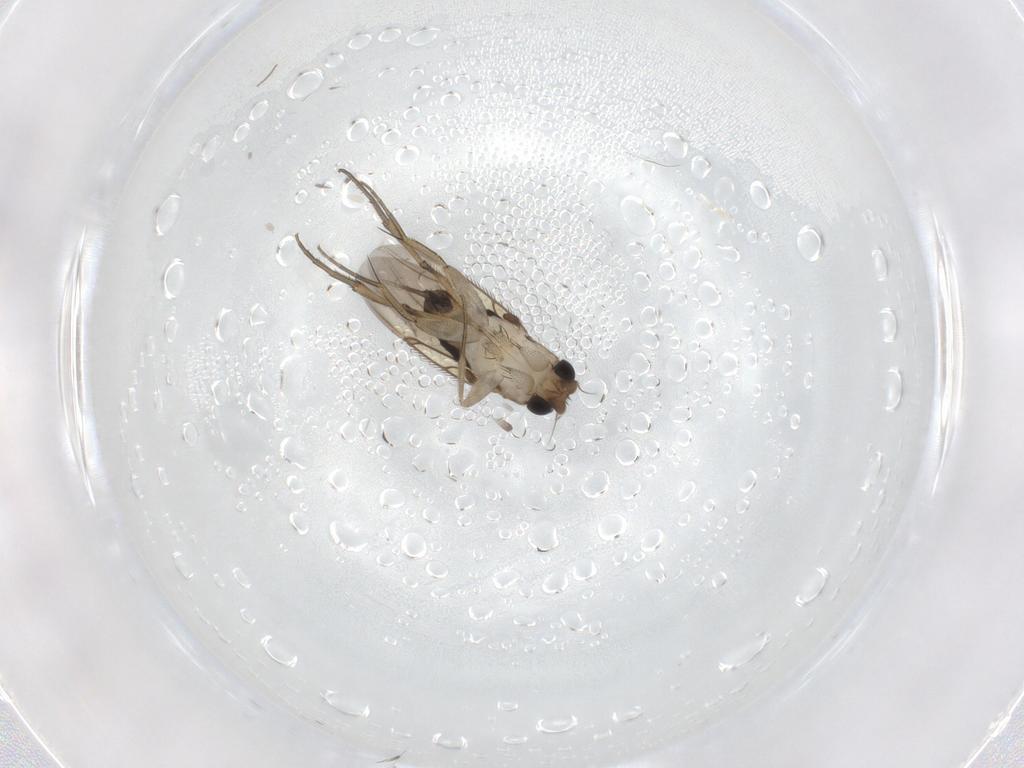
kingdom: Animalia
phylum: Arthropoda
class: Insecta
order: Diptera
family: Phoridae
